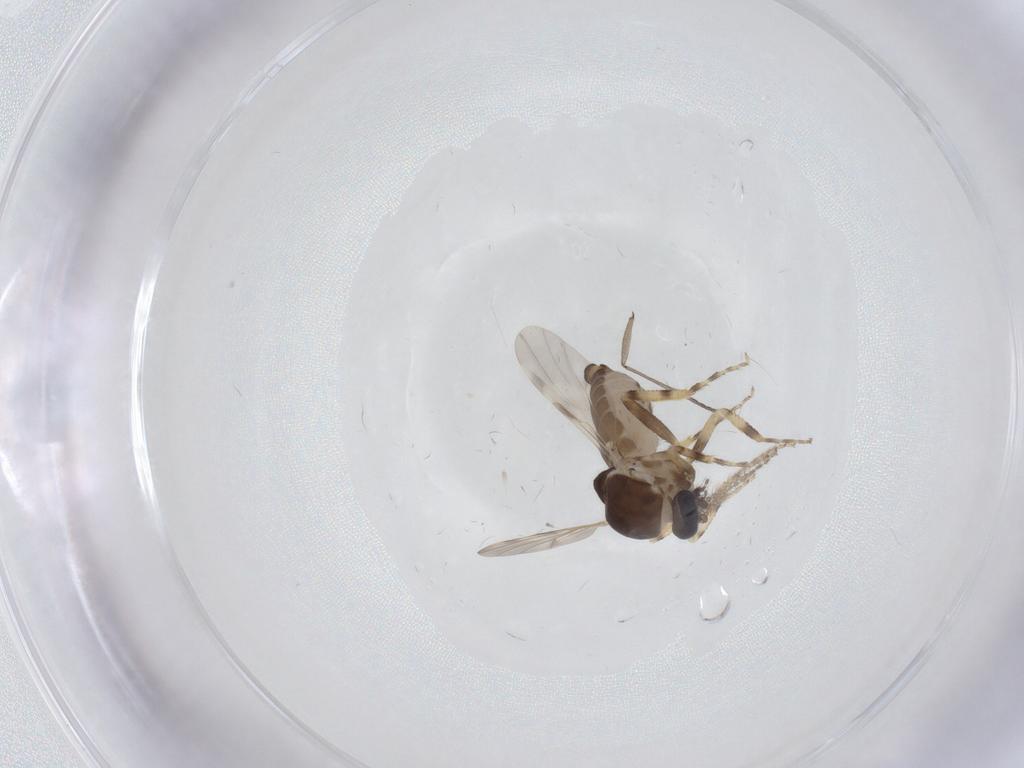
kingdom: Animalia
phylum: Arthropoda
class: Insecta
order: Diptera
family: Ceratopogonidae
